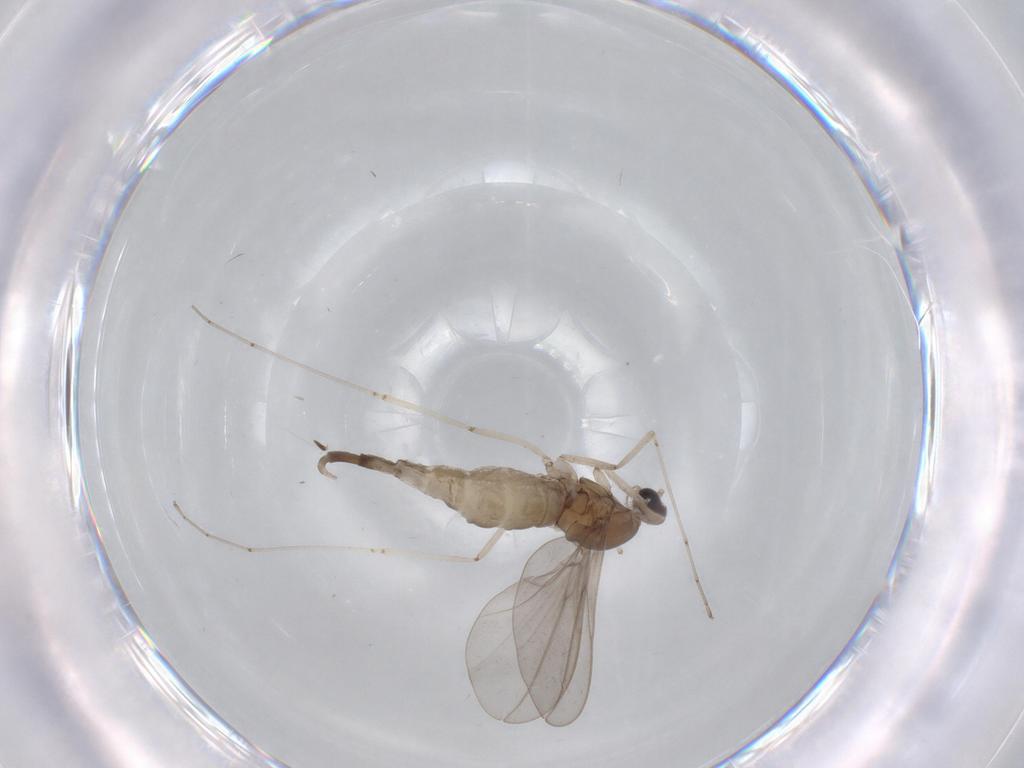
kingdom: Animalia
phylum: Arthropoda
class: Insecta
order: Diptera
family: Cecidomyiidae
